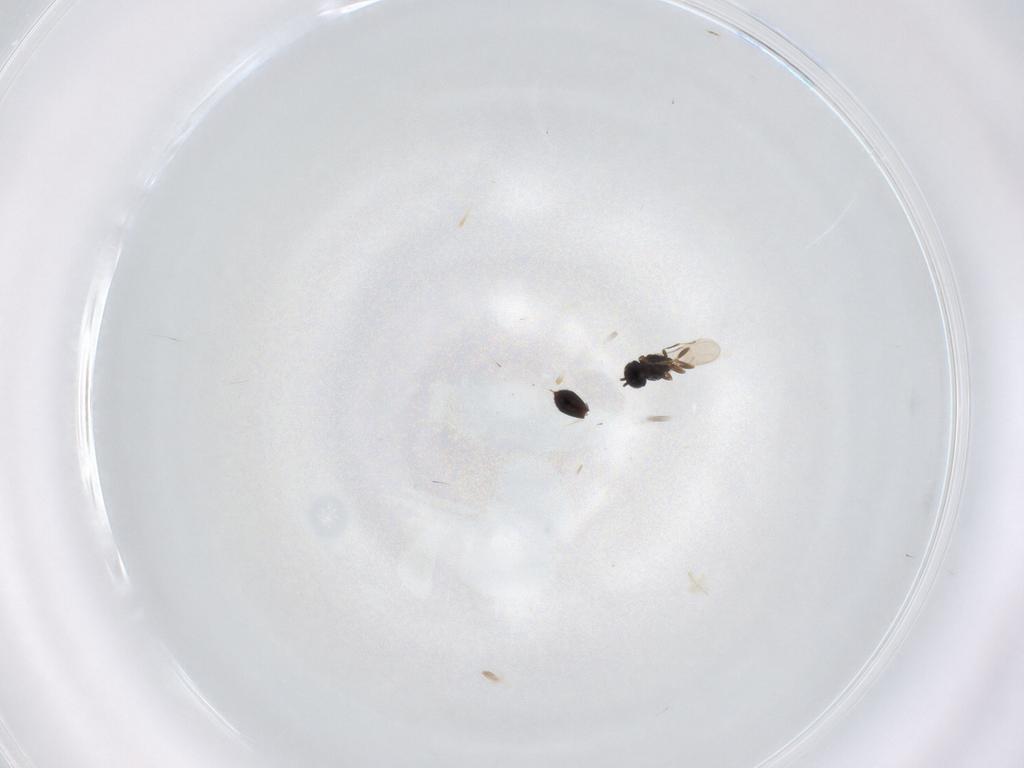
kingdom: Animalia
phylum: Arthropoda
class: Insecta
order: Hymenoptera
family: Scelionidae
